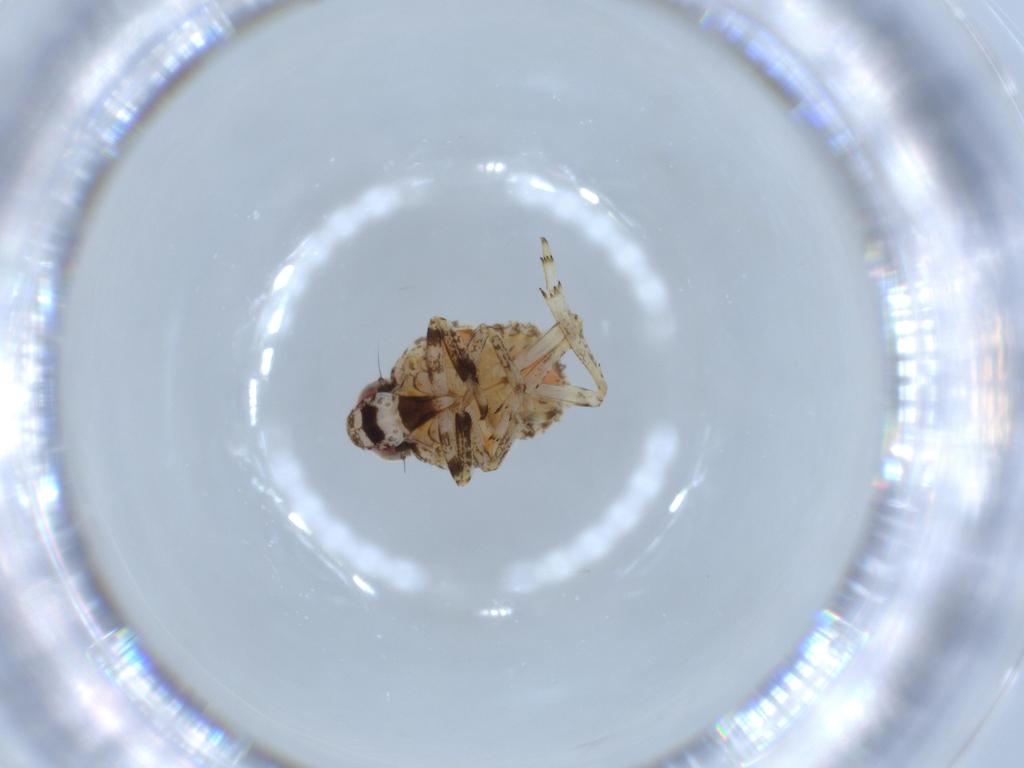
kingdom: Animalia
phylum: Arthropoda
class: Insecta
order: Hemiptera
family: Issidae
